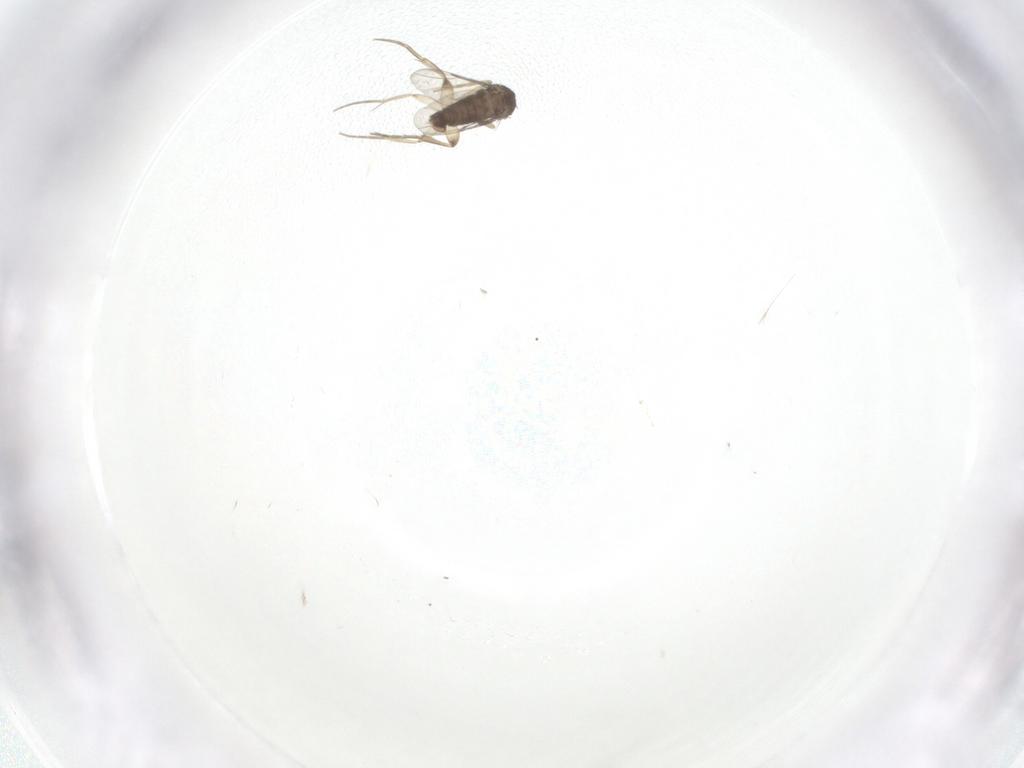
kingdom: Animalia
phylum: Arthropoda
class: Insecta
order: Diptera
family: Phoridae
